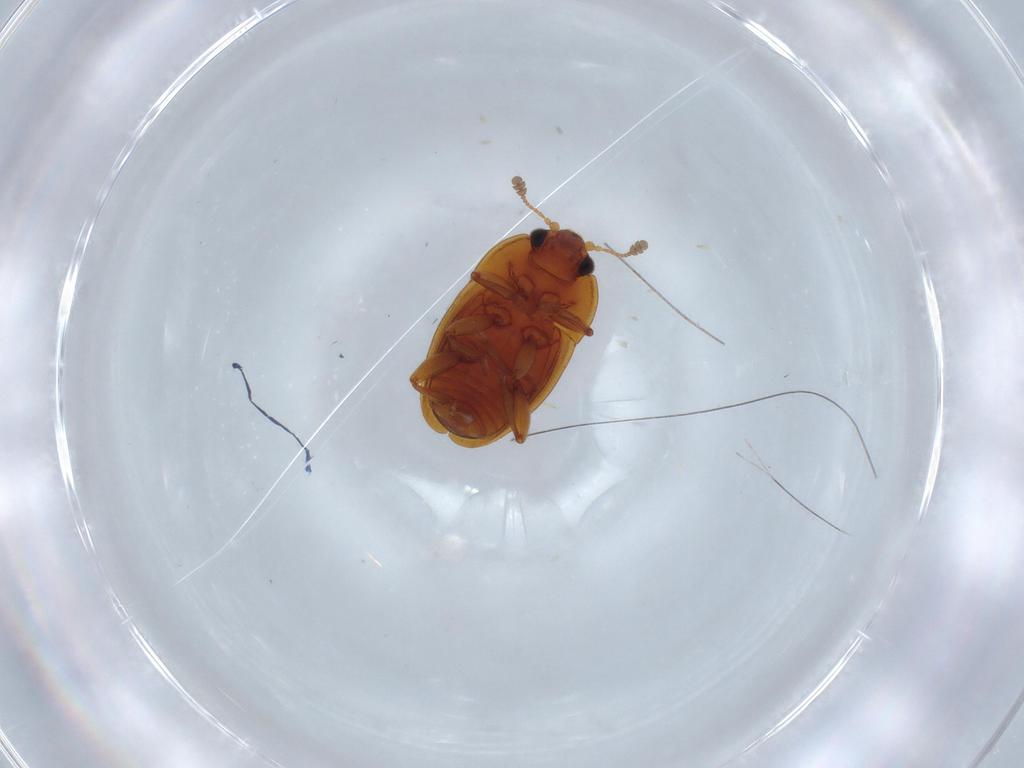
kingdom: Animalia
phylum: Arthropoda
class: Insecta
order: Coleoptera
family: Nitidulidae
